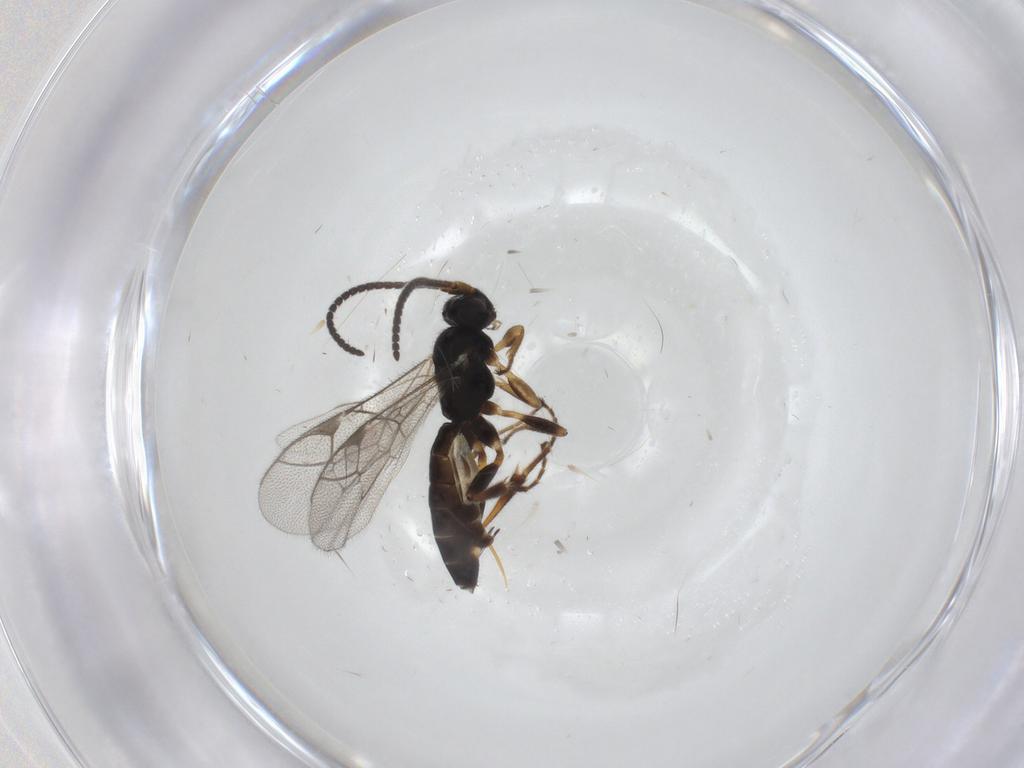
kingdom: Animalia
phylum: Arthropoda
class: Insecta
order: Hymenoptera
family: Ichneumonidae
